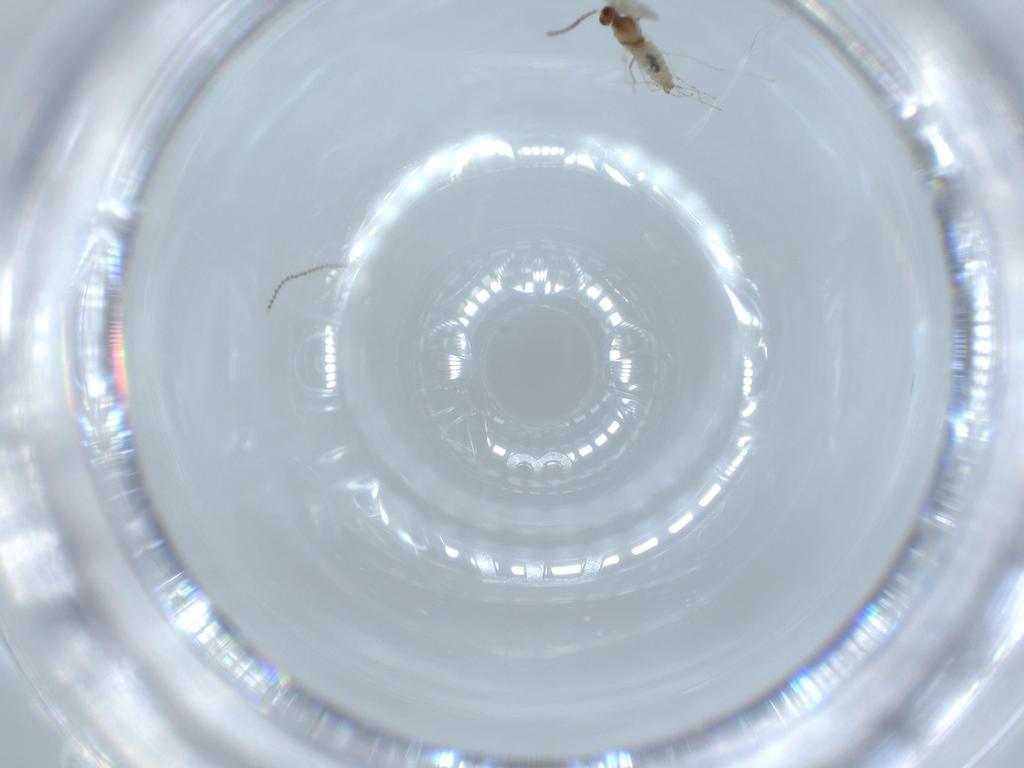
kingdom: Animalia
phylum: Arthropoda
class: Insecta
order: Diptera
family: Cecidomyiidae
